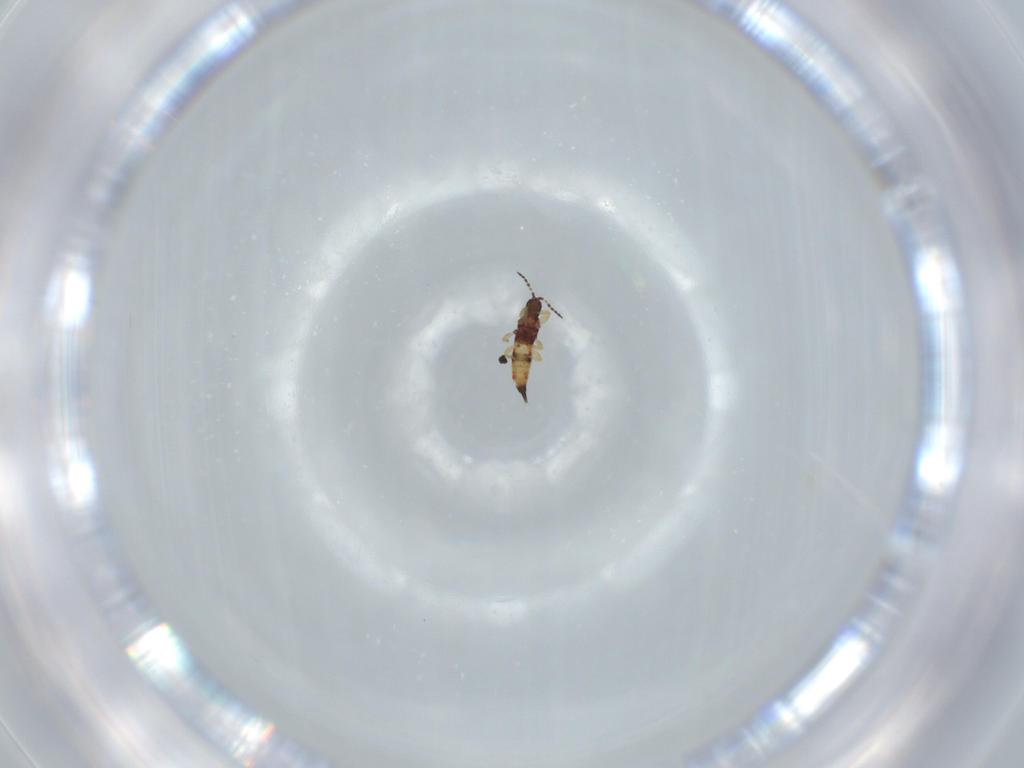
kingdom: Animalia
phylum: Arthropoda
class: Insecta
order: Thysanoptera
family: Phlaeothripidae
